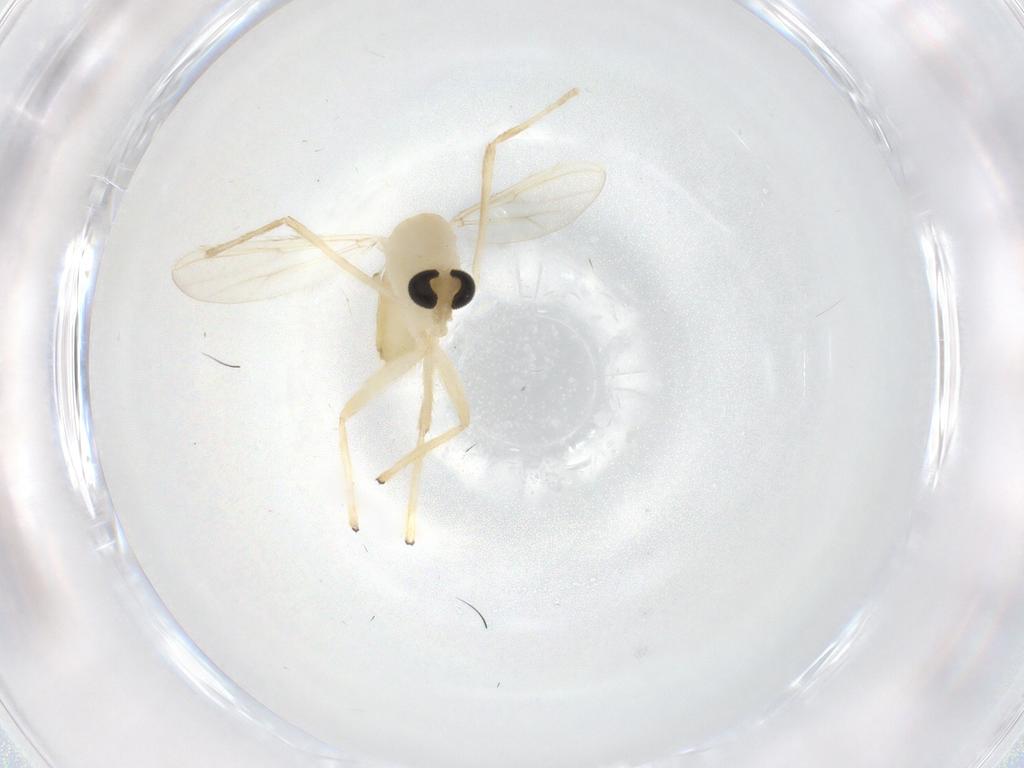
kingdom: Animalia
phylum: Arthropoda
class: Insecta
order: Diptera
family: Chironomidae
